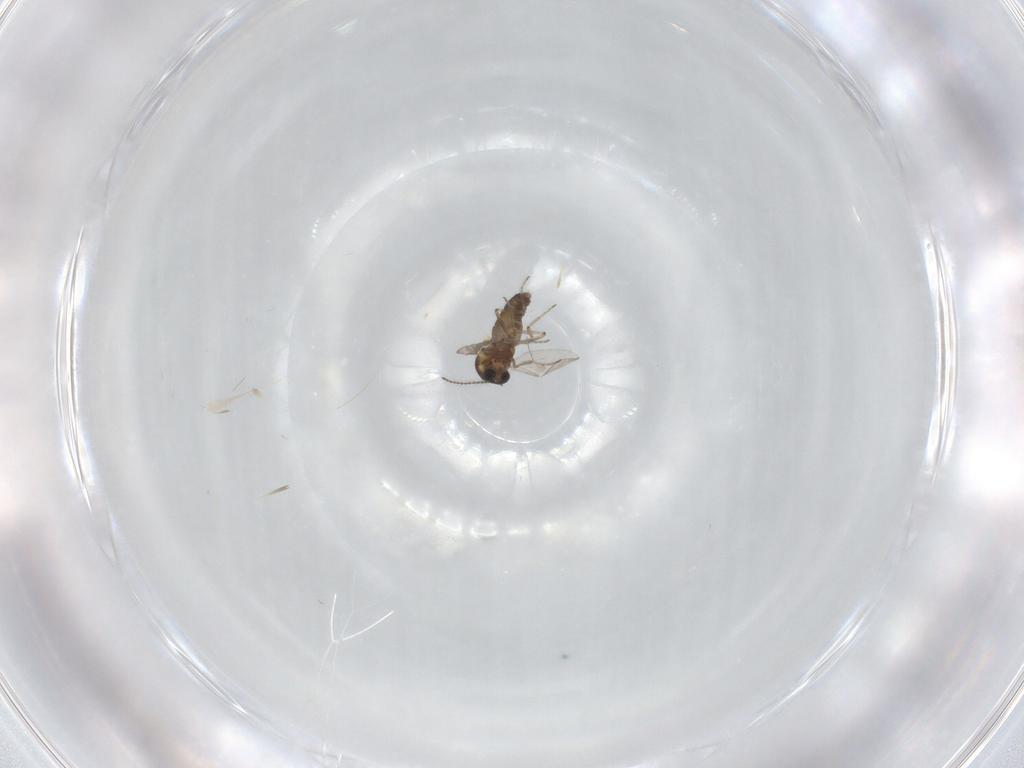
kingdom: Animalia
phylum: Arthropoda
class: Insecta
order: Diptera
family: Ceratopogonidae
